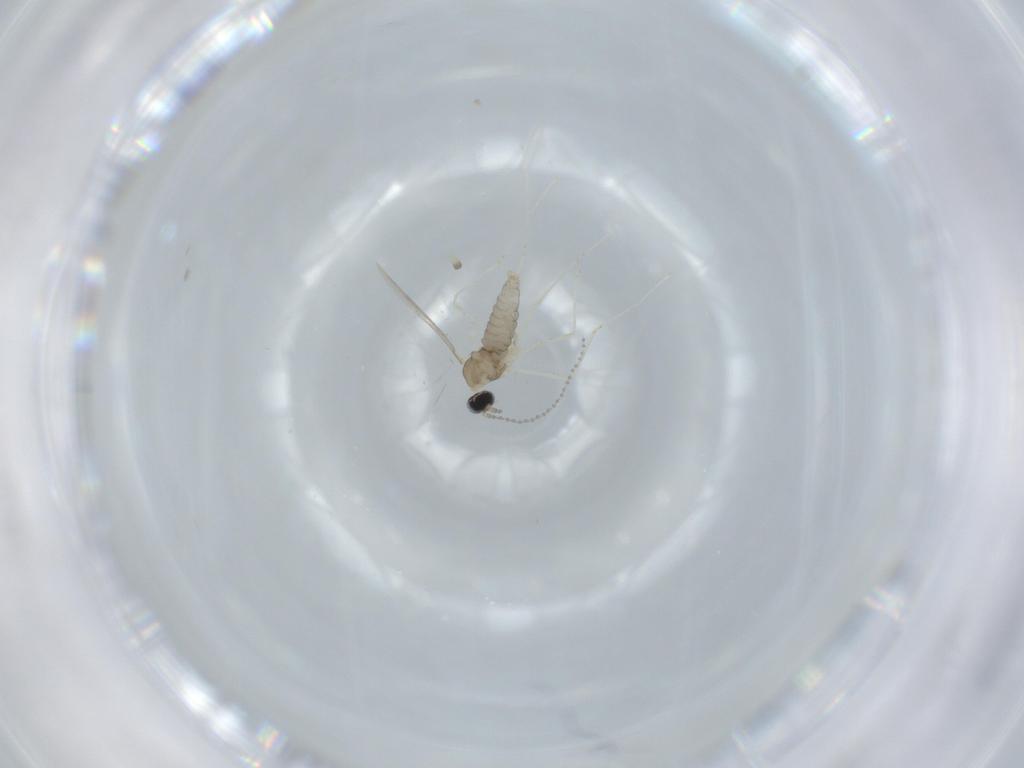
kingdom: Animalia
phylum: Arthropoda
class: Insecta
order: Diptera
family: Cecidomyiidae
